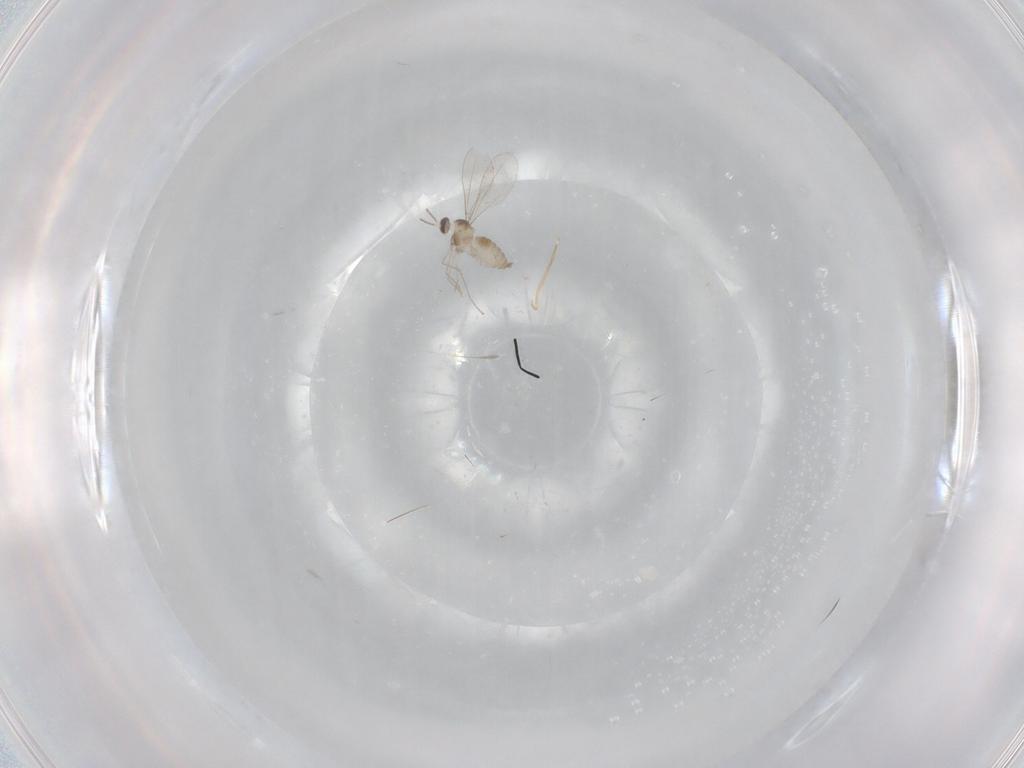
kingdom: Animalia
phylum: Arthropoda
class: Insecta
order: Diptera
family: Cecidomyiidae
